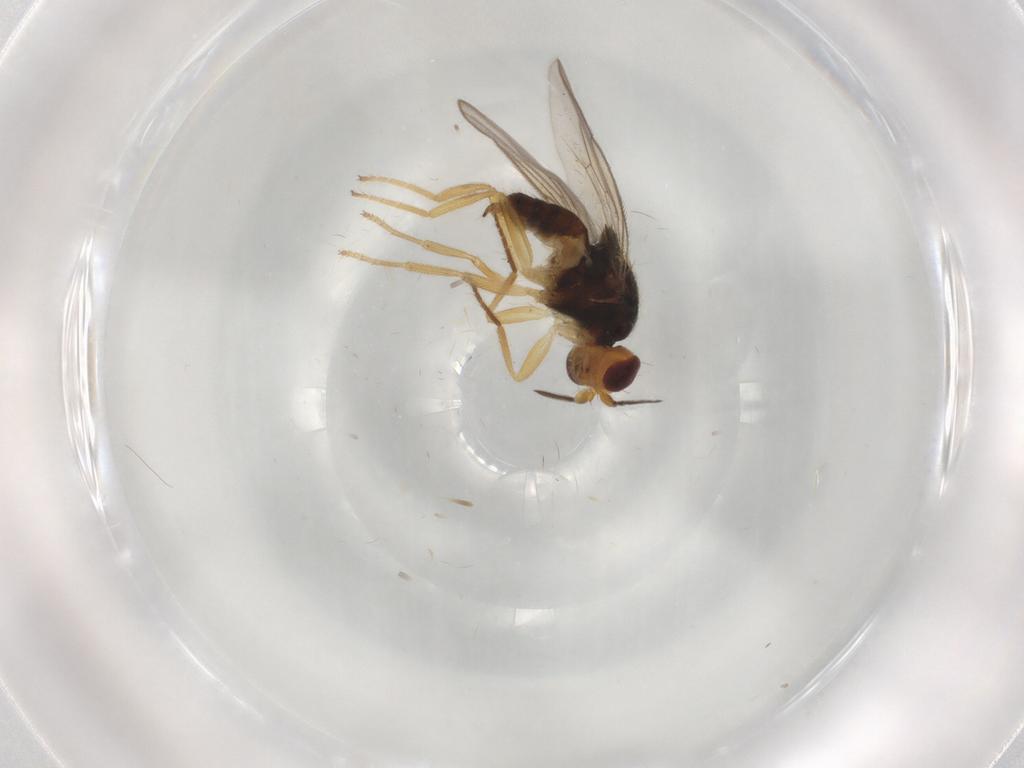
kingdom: Animalia
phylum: Arthropoda
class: Insecta
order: Diptera
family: Chloropidae
